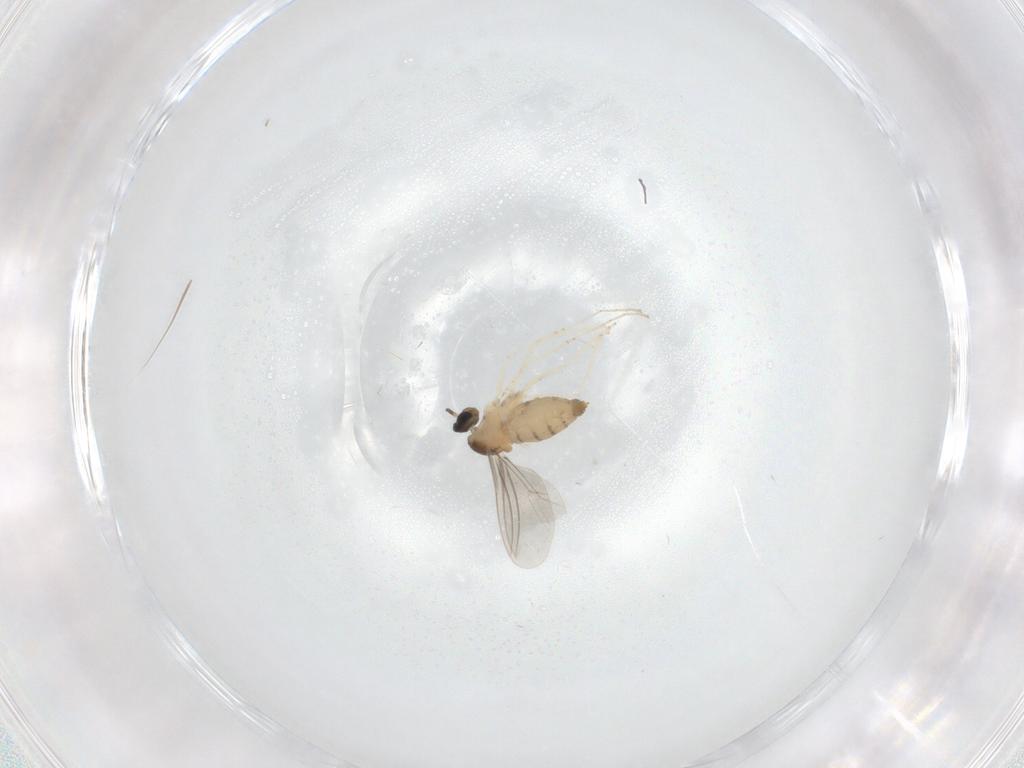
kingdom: Animalia
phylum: Arthropoda
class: Insecta
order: Diptera
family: Cecidomyiidae
